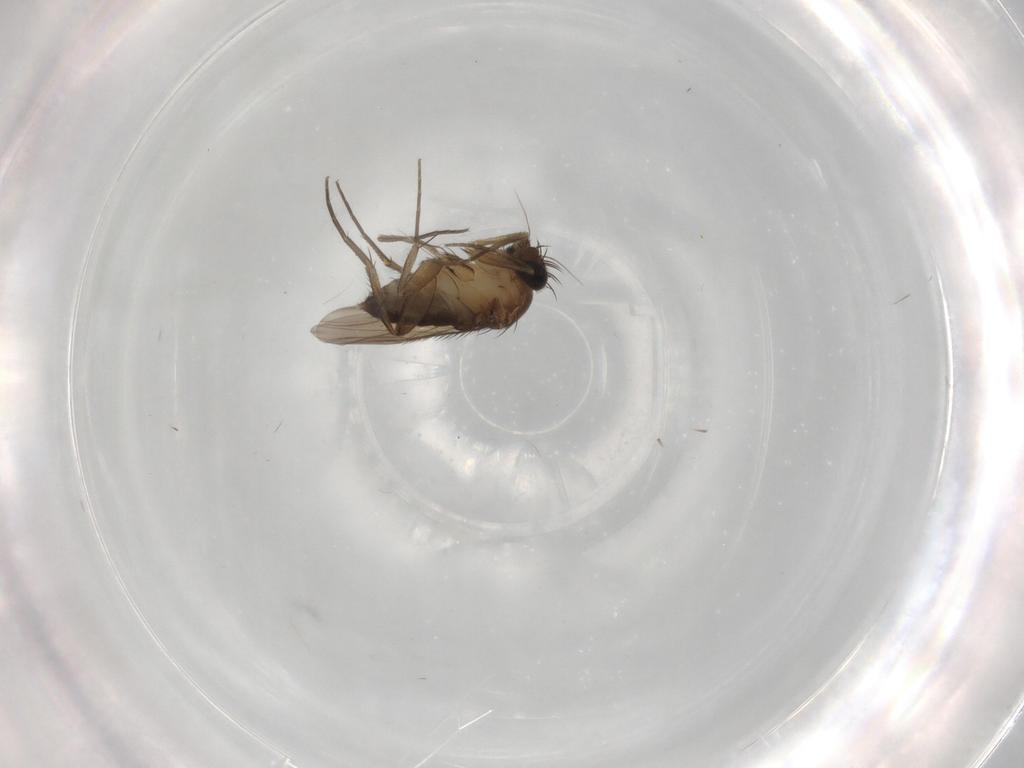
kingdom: Animalia
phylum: Arthropoda
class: Insecta
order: Diptera
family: Phoridae
